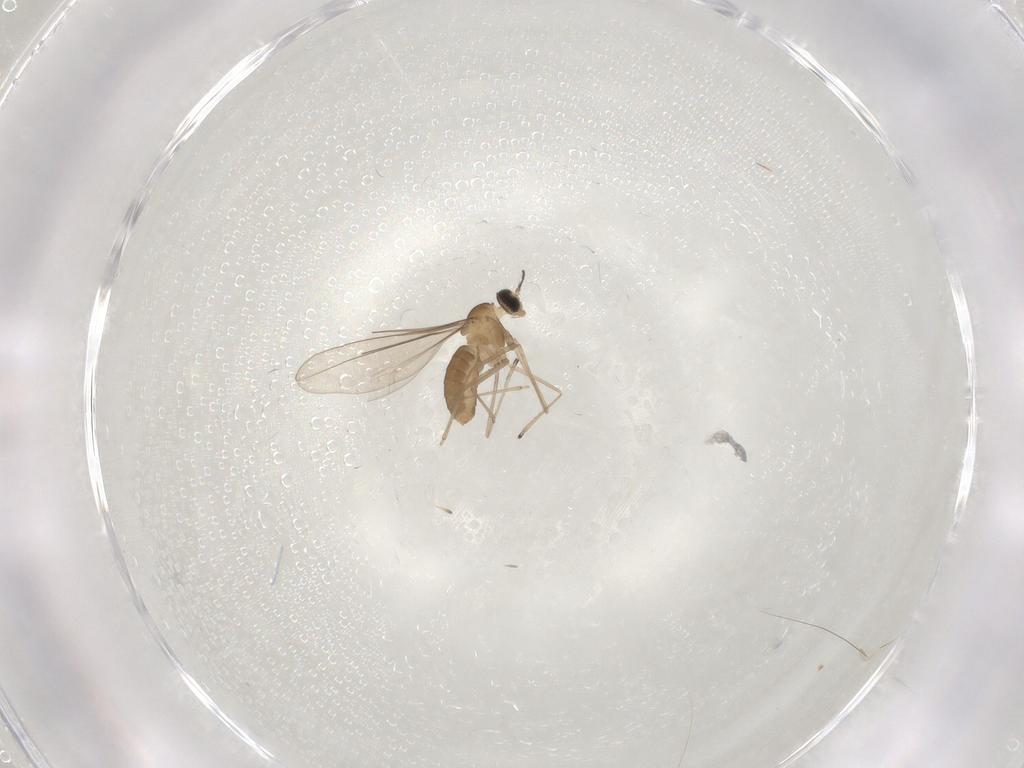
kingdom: Animalia
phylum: Arthropoda
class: Insecta
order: Diptera
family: Cecidomyiidae
